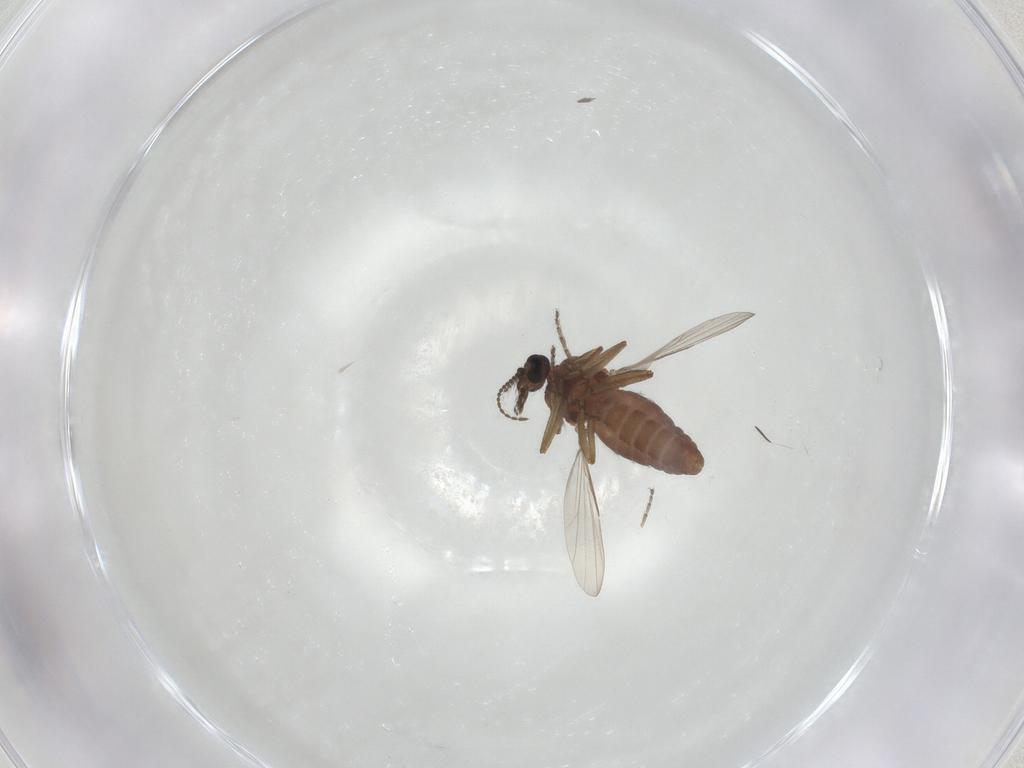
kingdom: Animalia
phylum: Arthropoda
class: Insecta
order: Diptera
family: Ceratopogonidae
